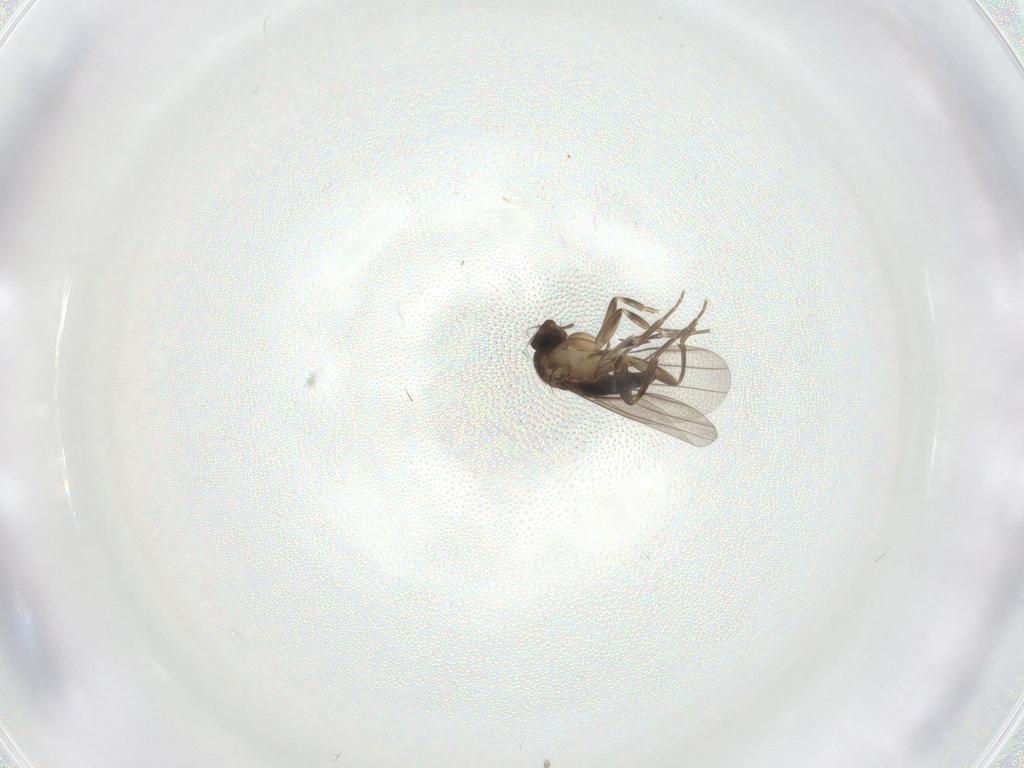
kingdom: Animalia
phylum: Arthropoda
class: Insecta
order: Diptera
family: Phoridae
